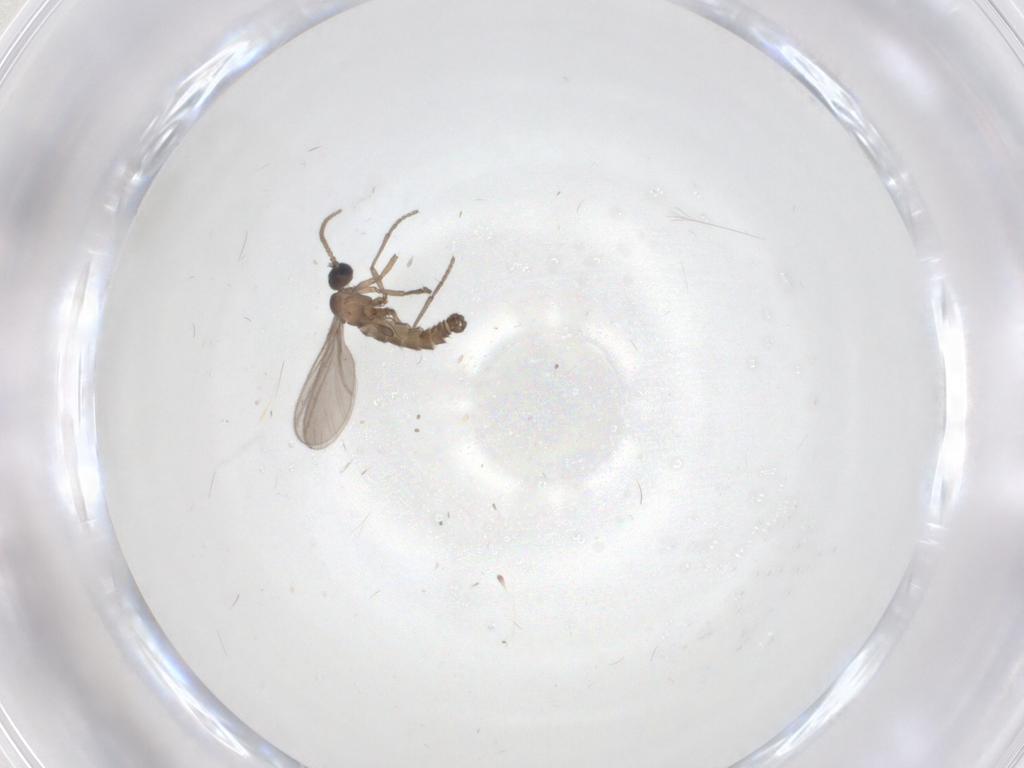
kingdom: Animalia
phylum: Arthropoda
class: Insecta
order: Diptera
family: Sciaridae
